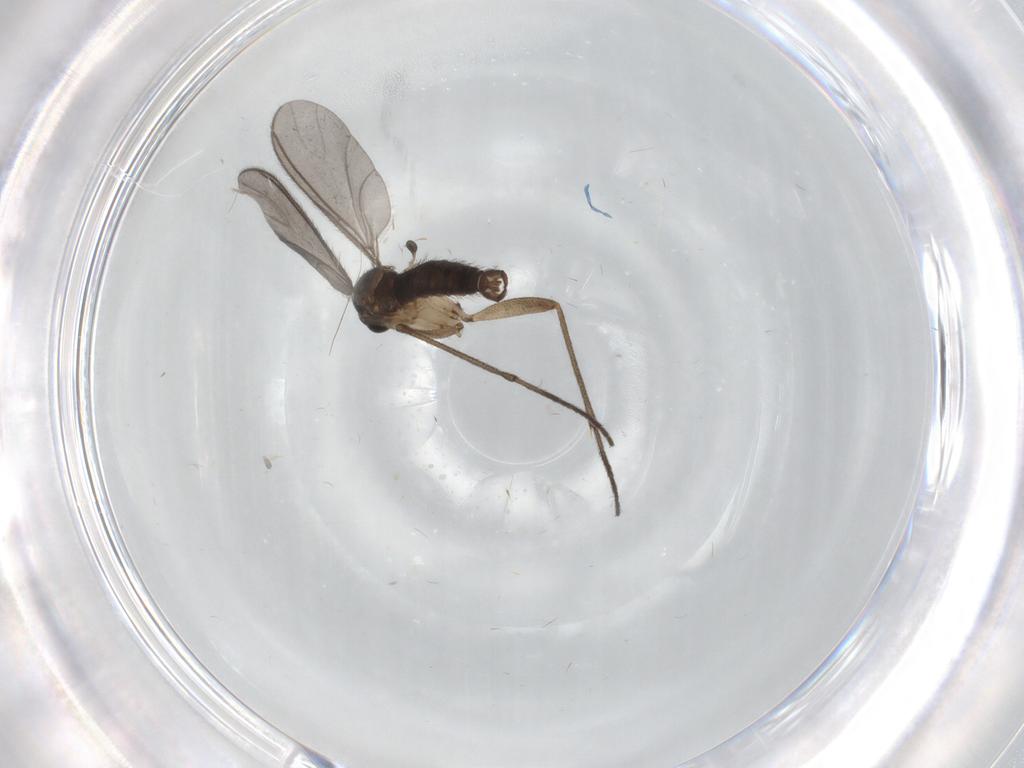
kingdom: Animalia
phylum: Arthropoda
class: Insecta
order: Diptera
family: Cecidomyiidae
